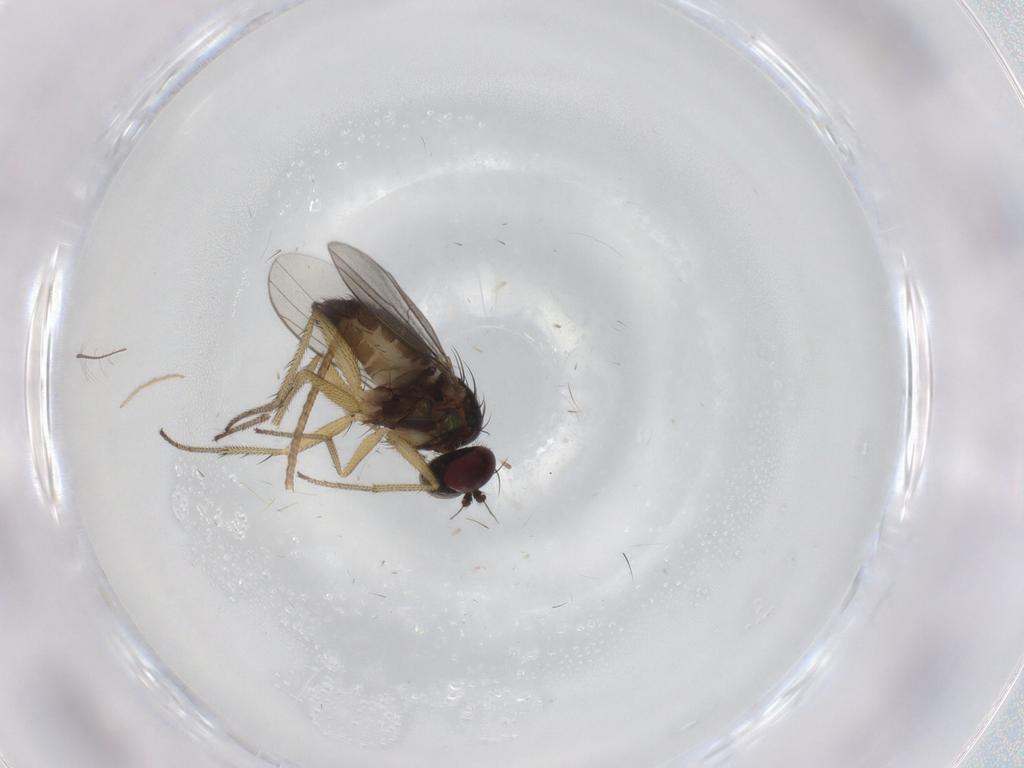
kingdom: Animalia
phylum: Arthropoda
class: Insecta
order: Diptera
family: Dolichopodidae
